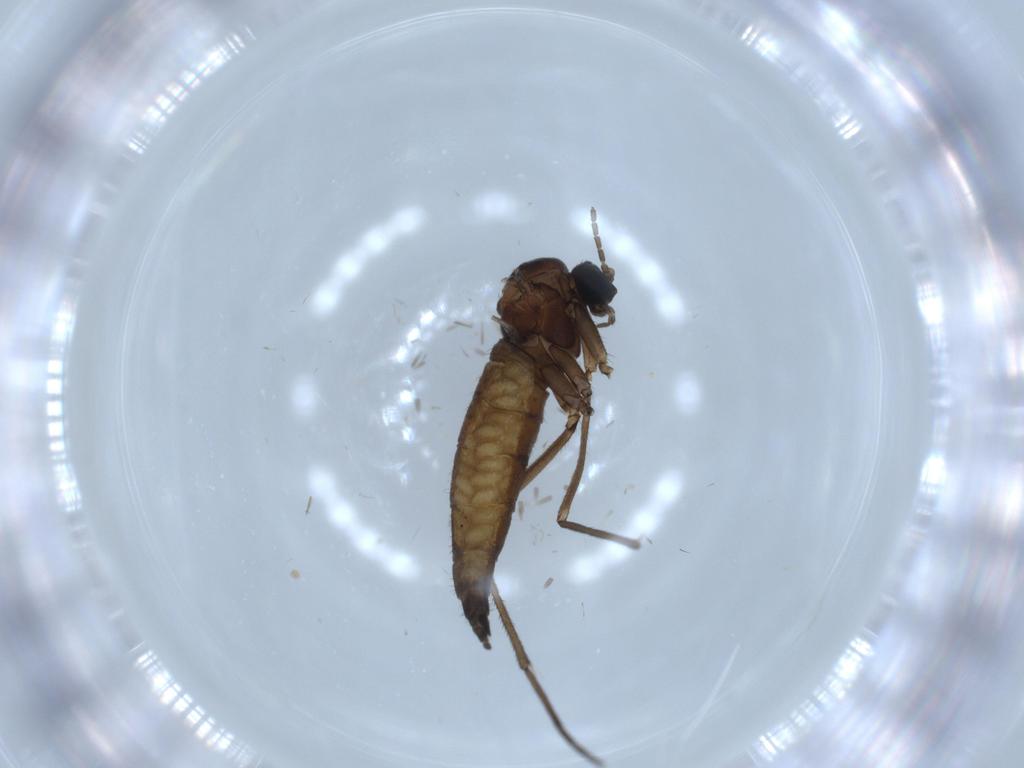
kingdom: Animalia
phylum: Arthropoda
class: Insecta
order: Diptera
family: Sciaridae
